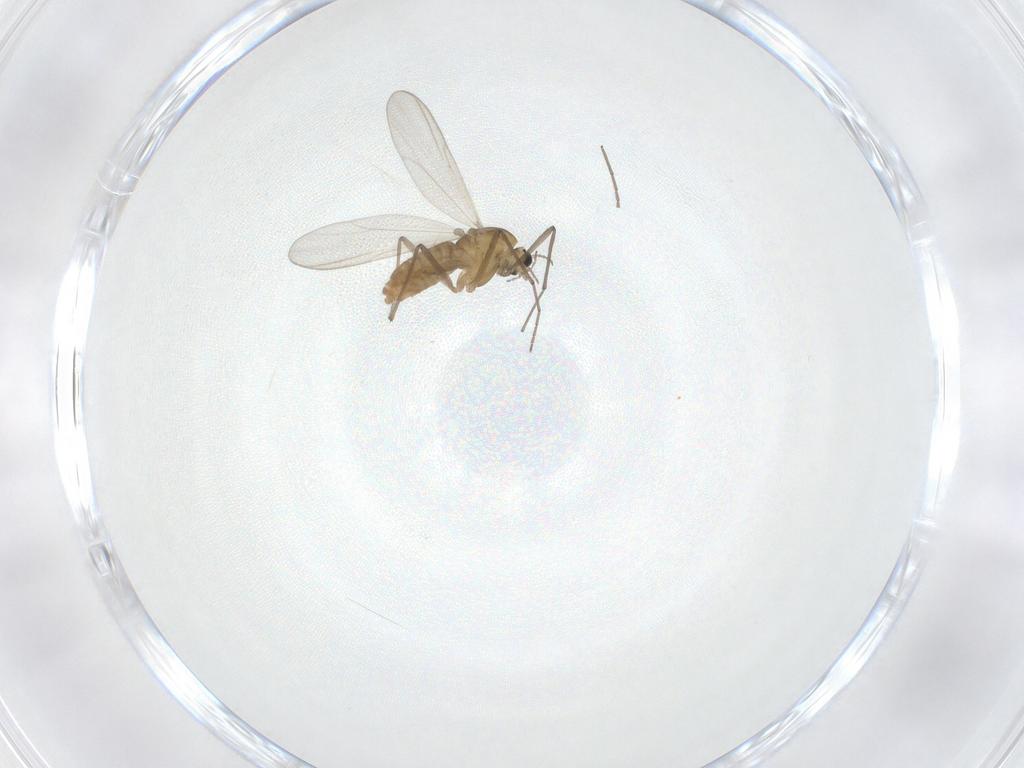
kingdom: Animalia
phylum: Arthropoda
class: Insecta
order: Diptera
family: Chironomidae
